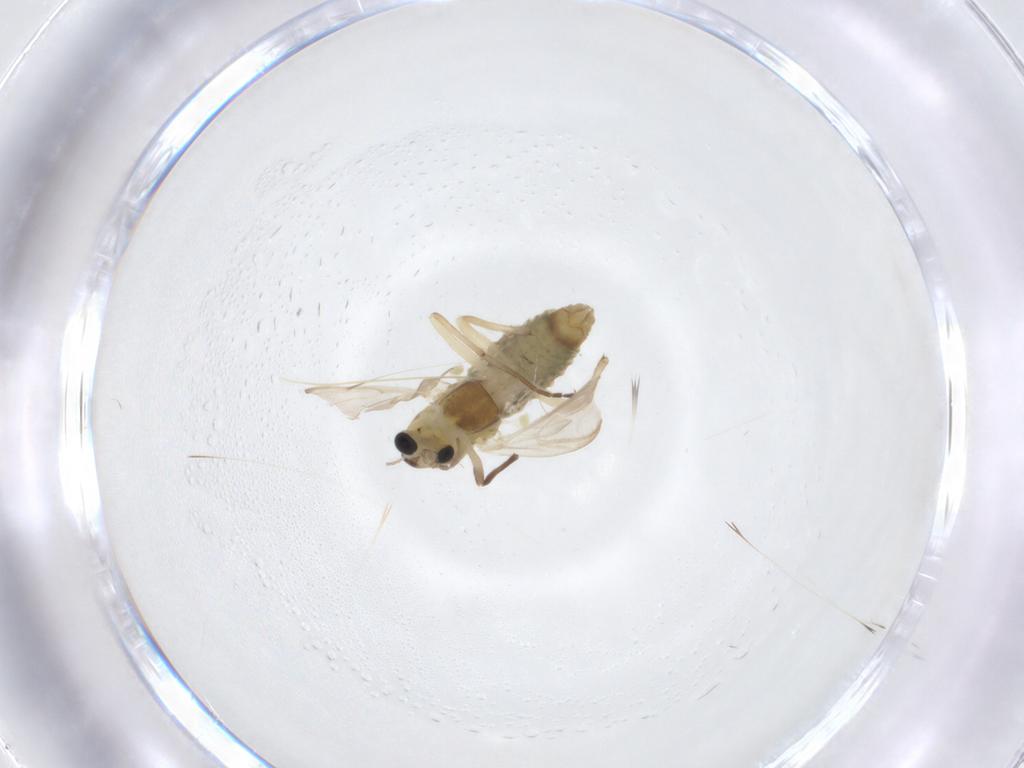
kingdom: Animalia
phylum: Arthropoda
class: Insecta
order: Diptera
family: Chironomidae
